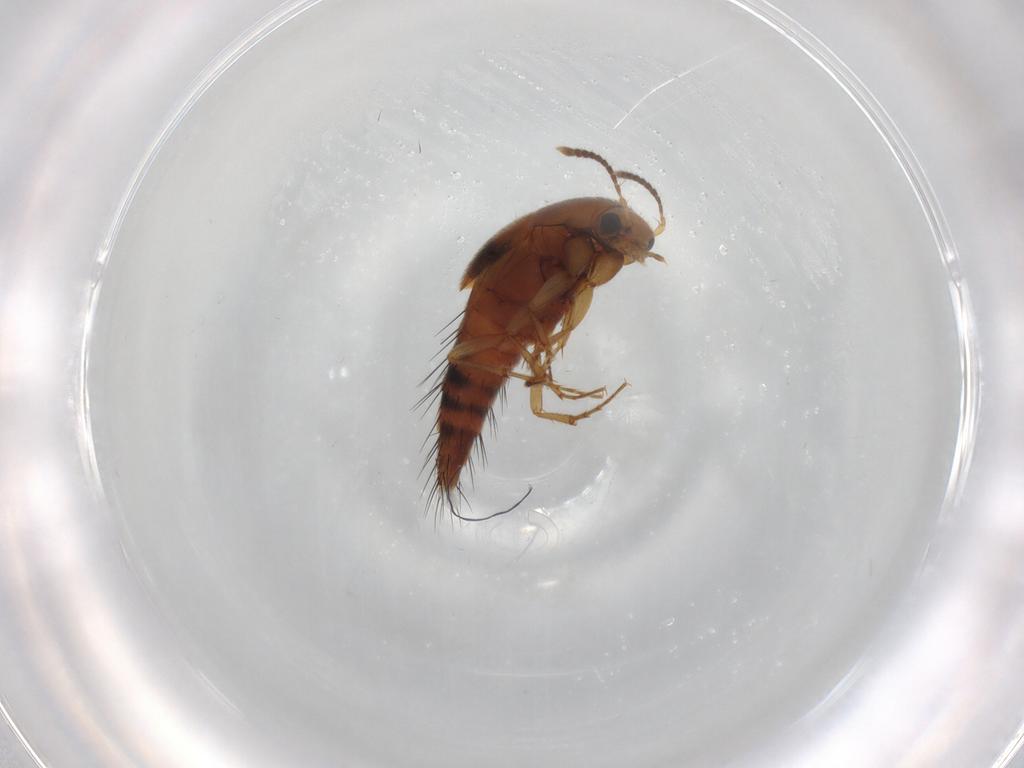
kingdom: Animalia
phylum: Arthropoda
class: Insecta
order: Coleoptera
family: Staphylinidae
